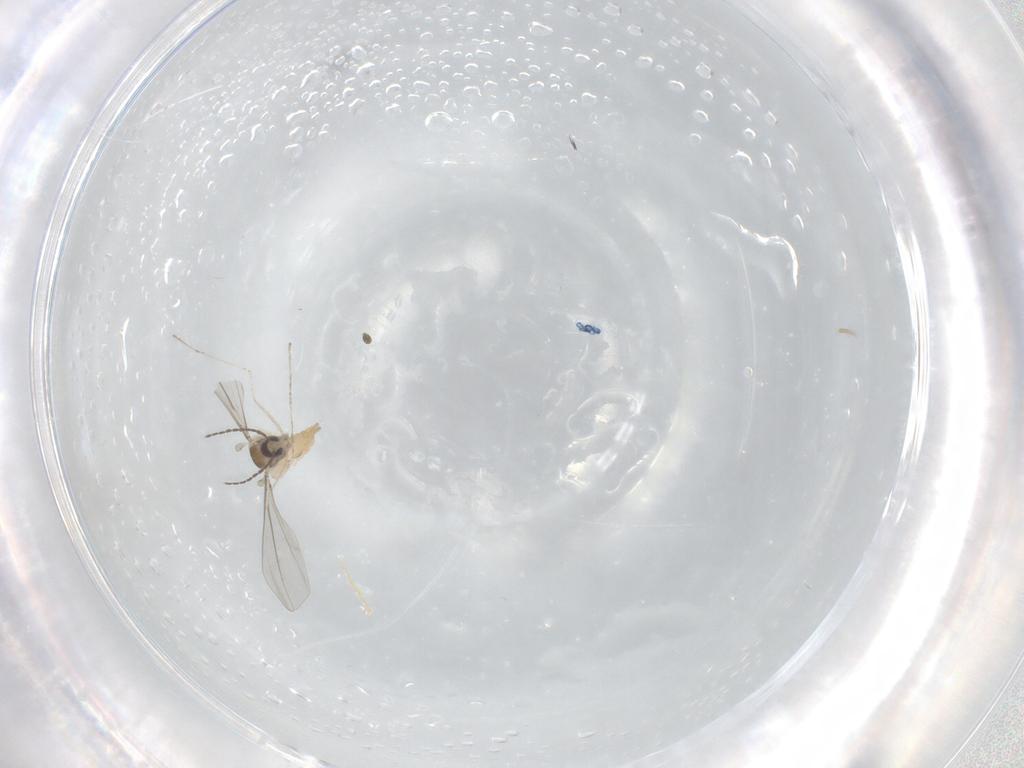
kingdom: Animalia
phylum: Arthropoda
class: Insecta
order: Diptera
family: Cecidomyiidae
